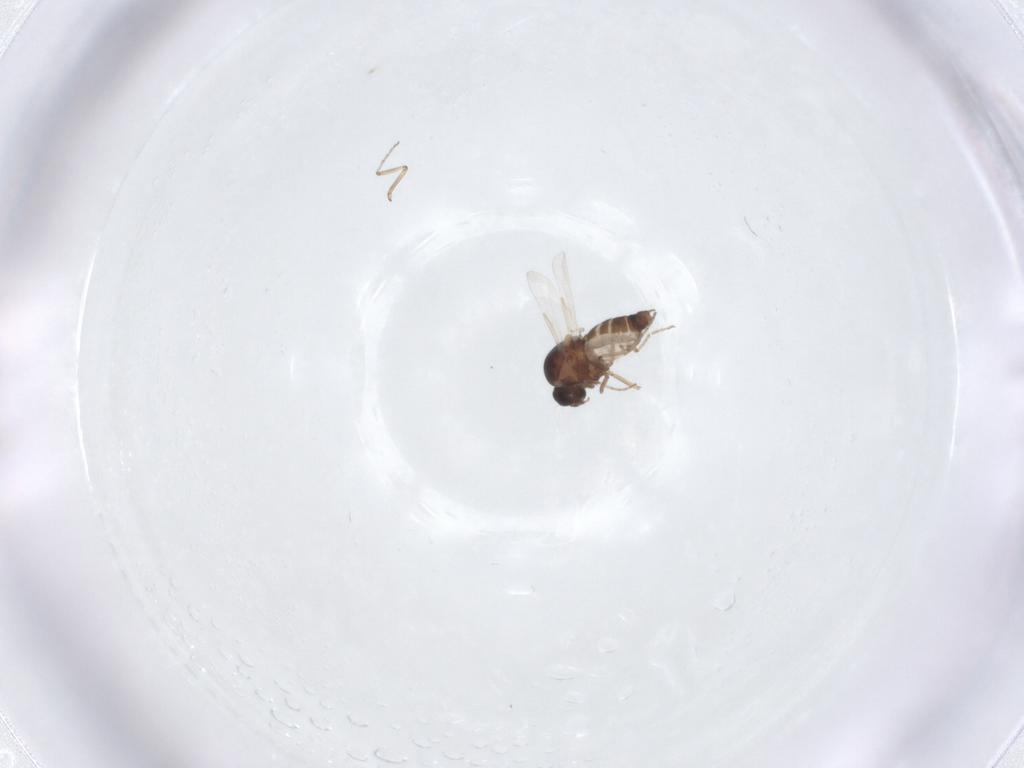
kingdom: Animalia
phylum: Arthropoda
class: Insecta
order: Diptera
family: Ceratopogonidae
